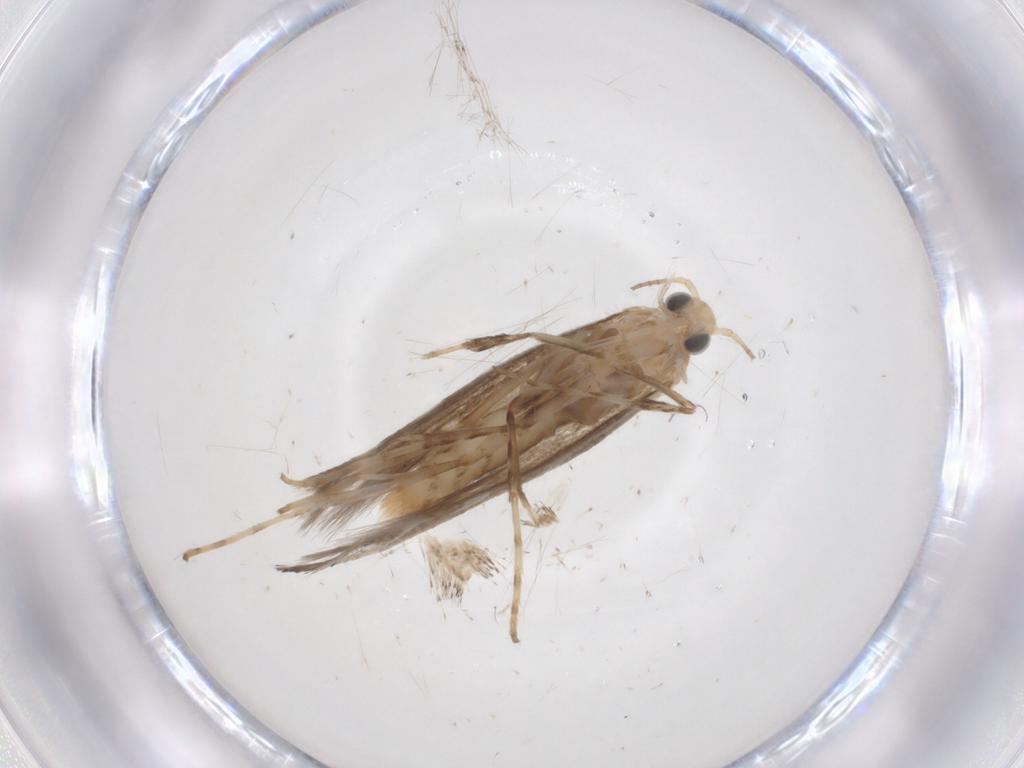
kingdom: Animalia
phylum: Arthropoda
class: Insecta
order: Lepidoptera
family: Gracillariidae
